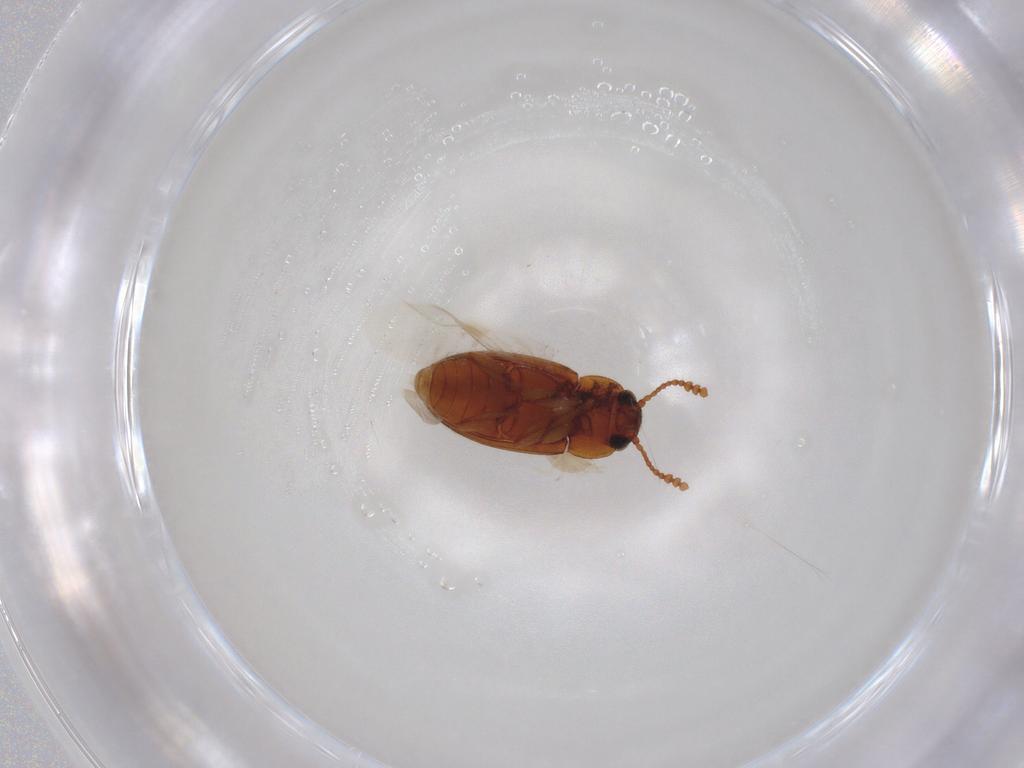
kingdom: Animalia
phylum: Arthropoda
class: Insecta
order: Coleoptera
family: Erotylidae
